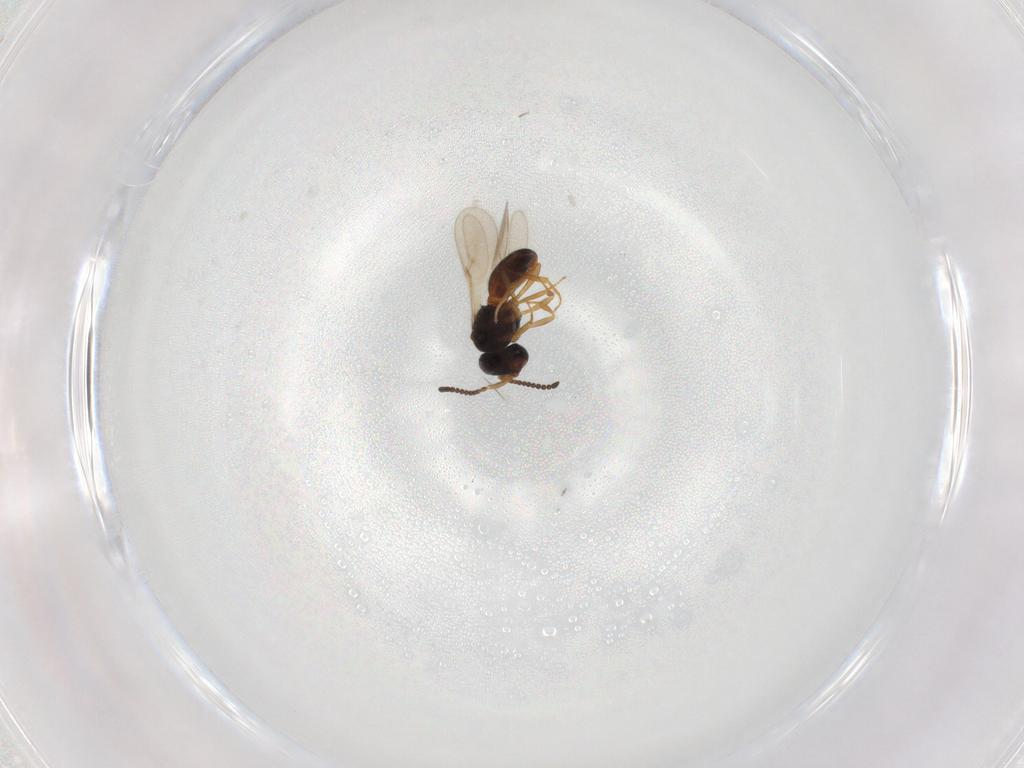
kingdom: Animalia
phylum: Arthropoda
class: Insecta
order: Hymenoptera
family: Scelionidae
